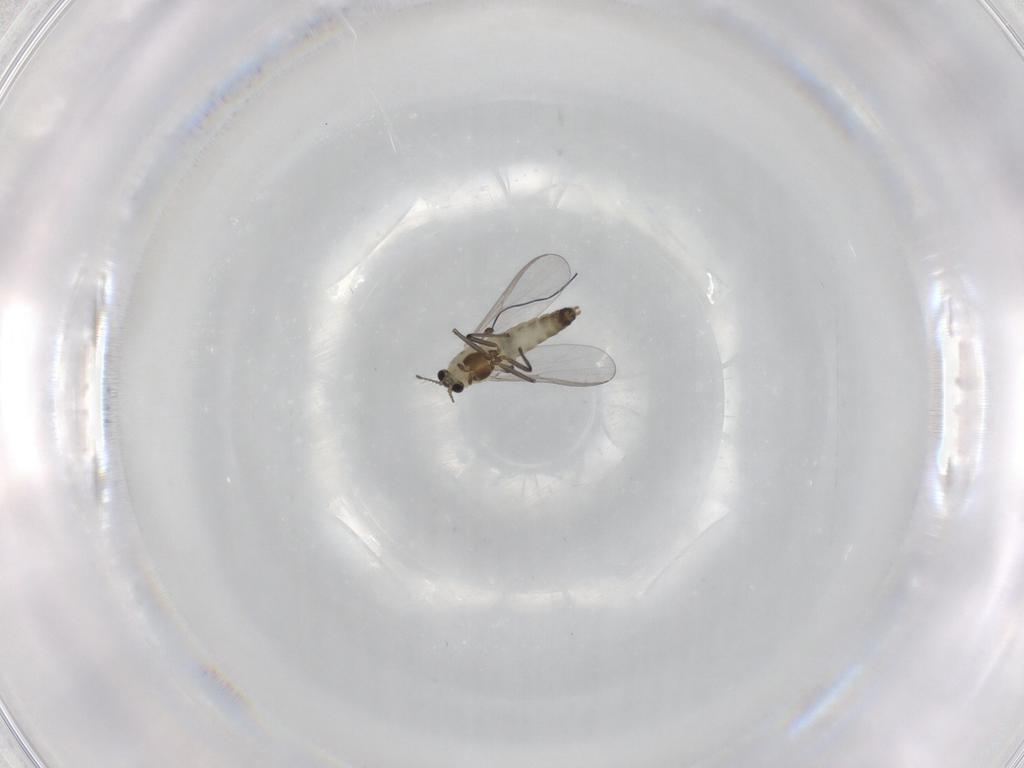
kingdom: Animalia
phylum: Arthropoda
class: Insecta
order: Diptera
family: Chironomidae
